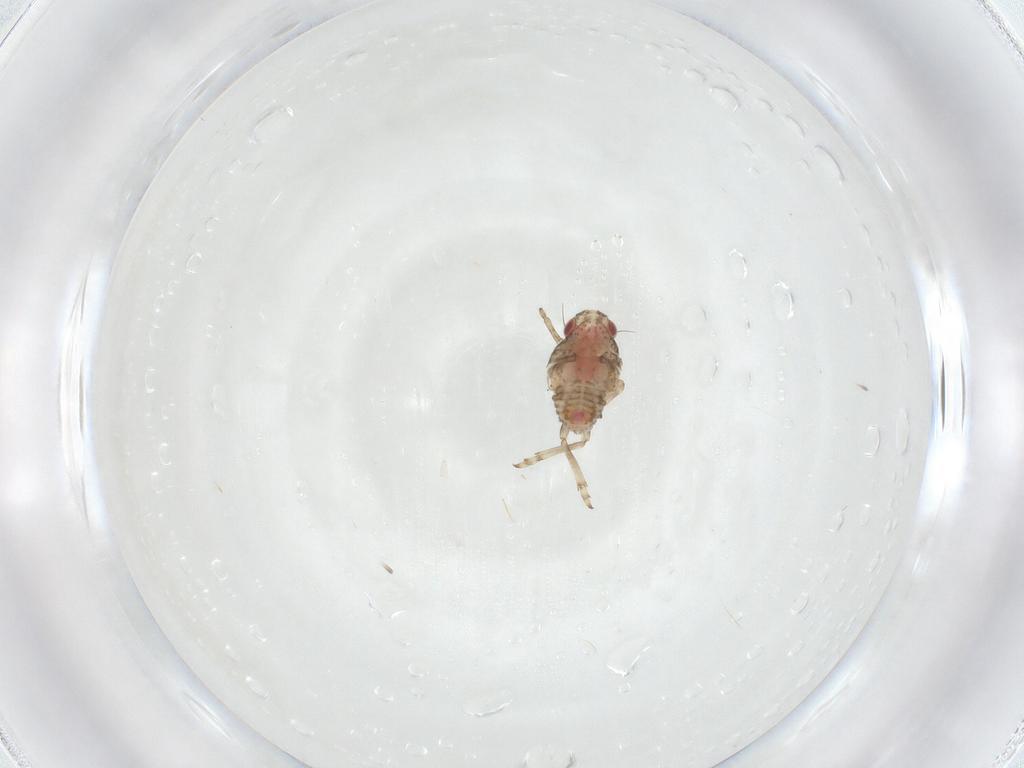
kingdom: Animalia
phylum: Arthropoda
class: Insecta
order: Hemiptera
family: Tropiduchidae
